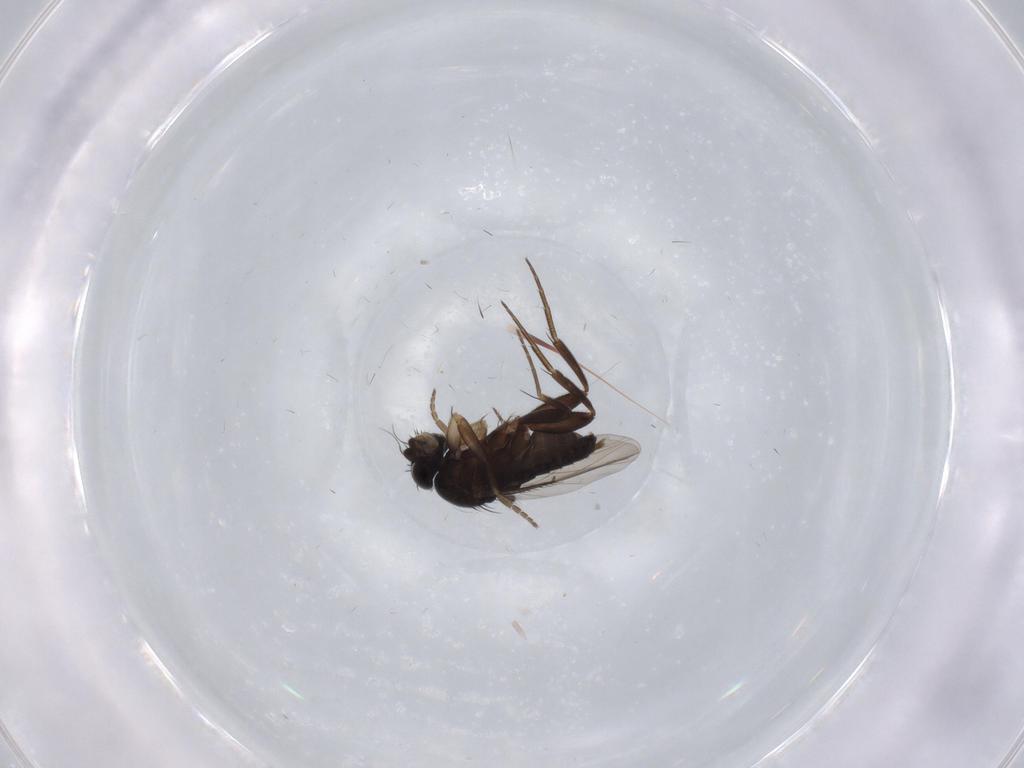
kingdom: Animalia
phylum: Arthropoda
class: Insecta
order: Diptera
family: Phoridae
